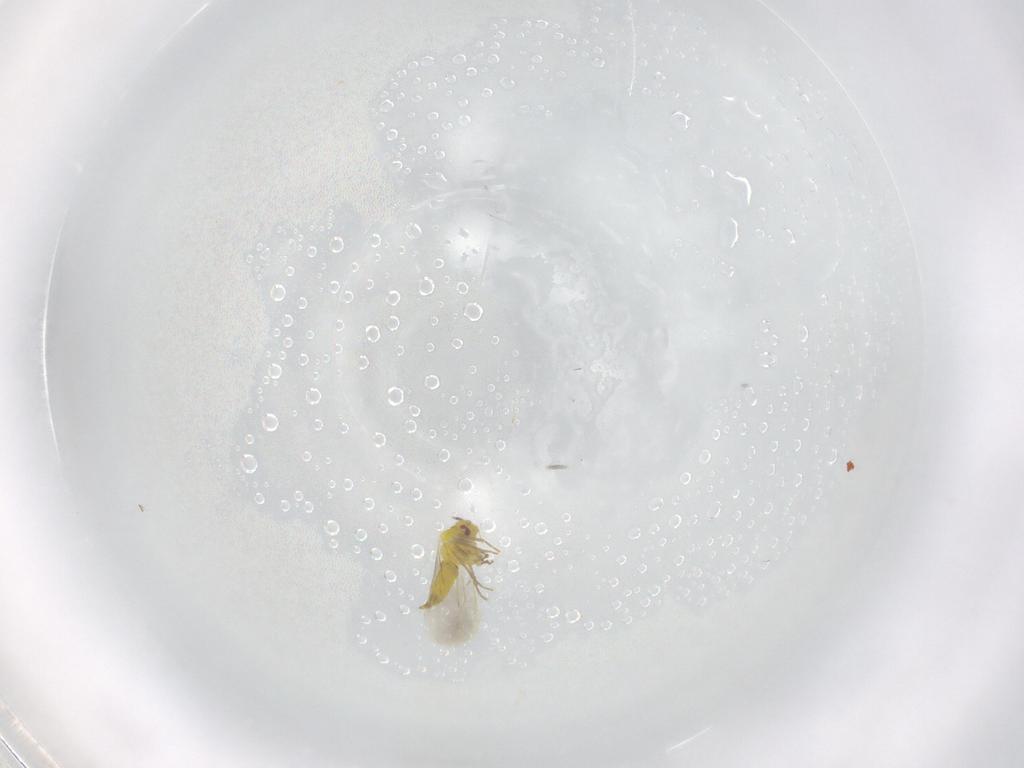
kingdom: Animalia
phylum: Arthropoda
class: Insecta
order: Hemiptera
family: Aleyrodidae
